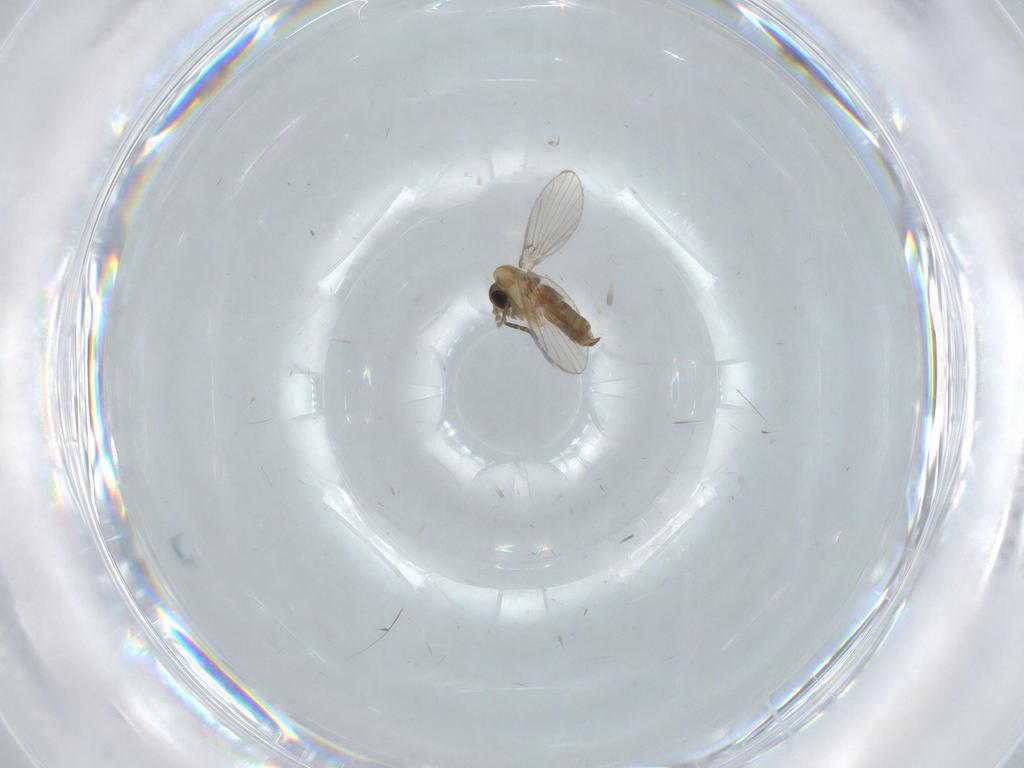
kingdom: Animalia
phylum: Arthropoda
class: Insecta
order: Diptera
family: Psychodidae
